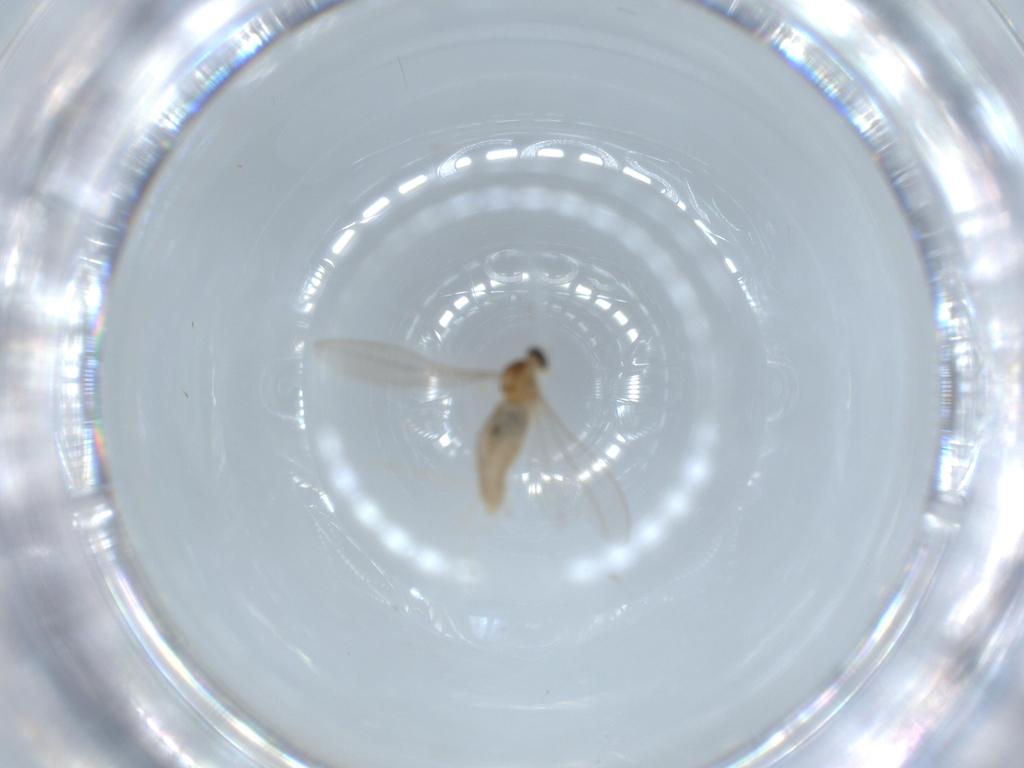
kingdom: Animalia
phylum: Arthropoda
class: Insecta
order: Diptera
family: Cecidomyiidae
